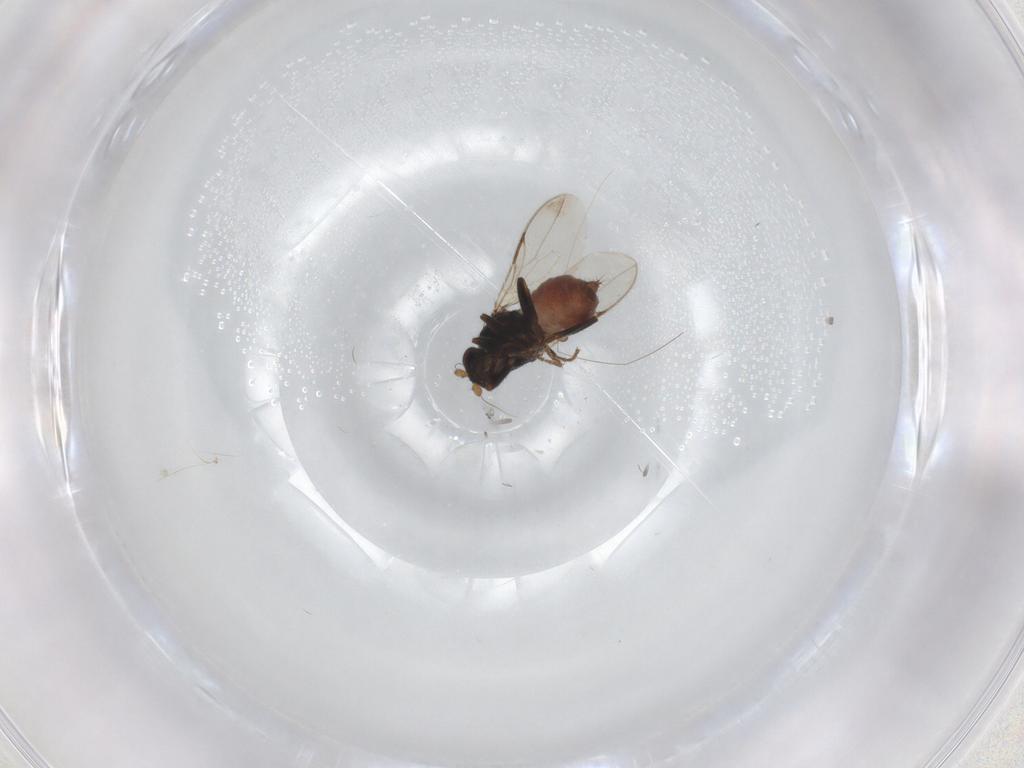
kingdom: Animalia
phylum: Arthropoda
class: Insecta
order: Diptera
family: Sphaeroceridae
